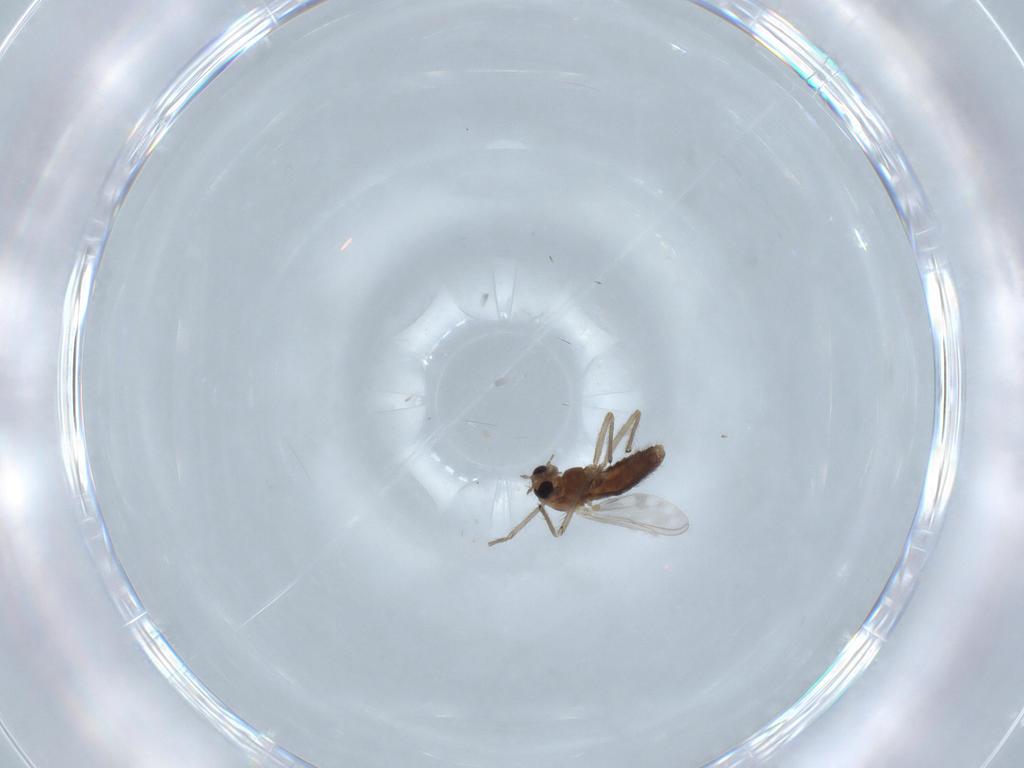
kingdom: Animalia
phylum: Arthropoda
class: Insecta
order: Diptera
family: Chironomidae
